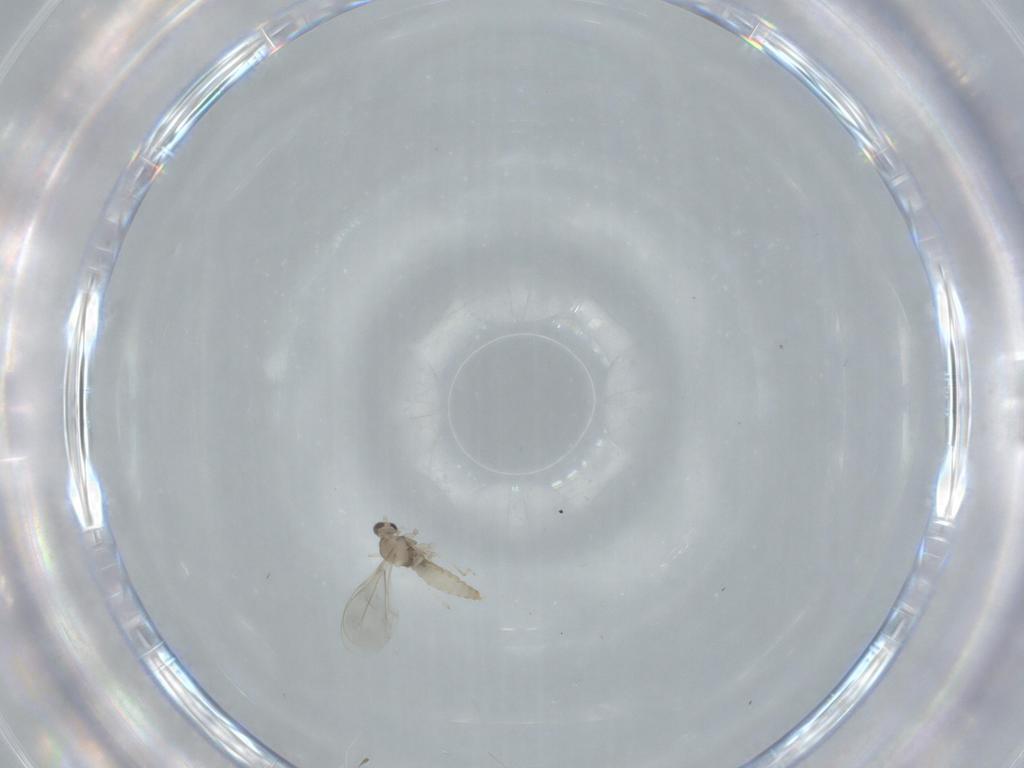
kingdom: Animalia
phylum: Arthropoda
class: Insecta
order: Diptera
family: Cecidomyiidae
